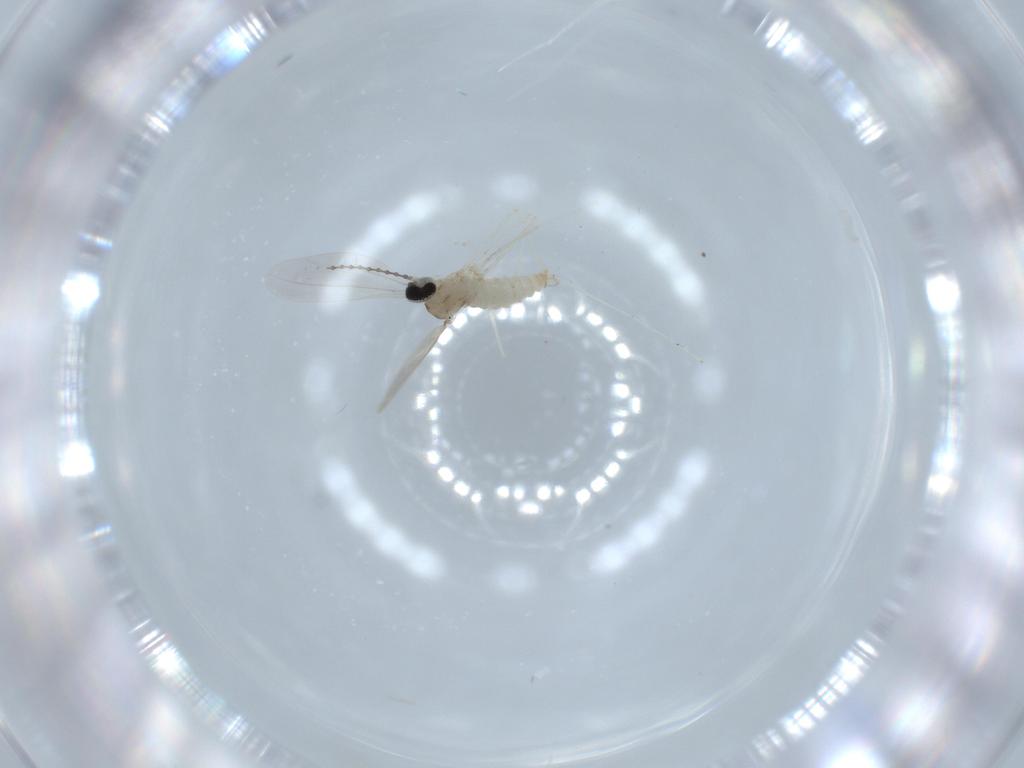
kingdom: Animalia
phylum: Arthropoda
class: Insecta
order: Diptera
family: Cecidomyiidae
